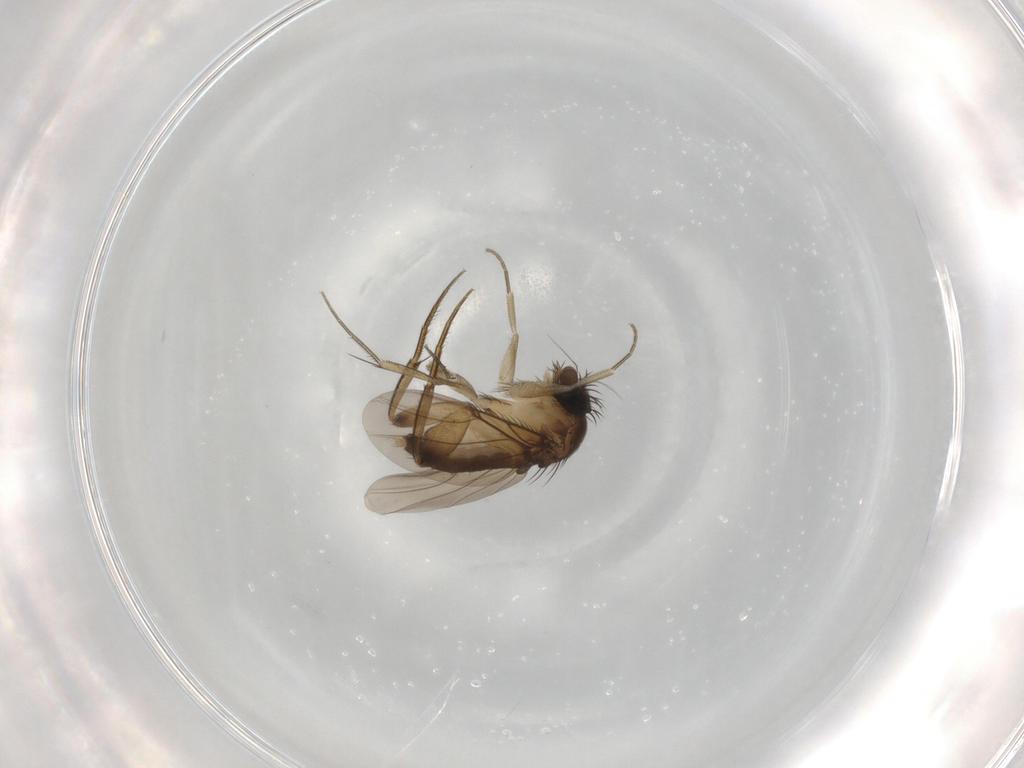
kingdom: Animalia
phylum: Arthropoda
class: Insecta
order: Diptera
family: Phoridae
